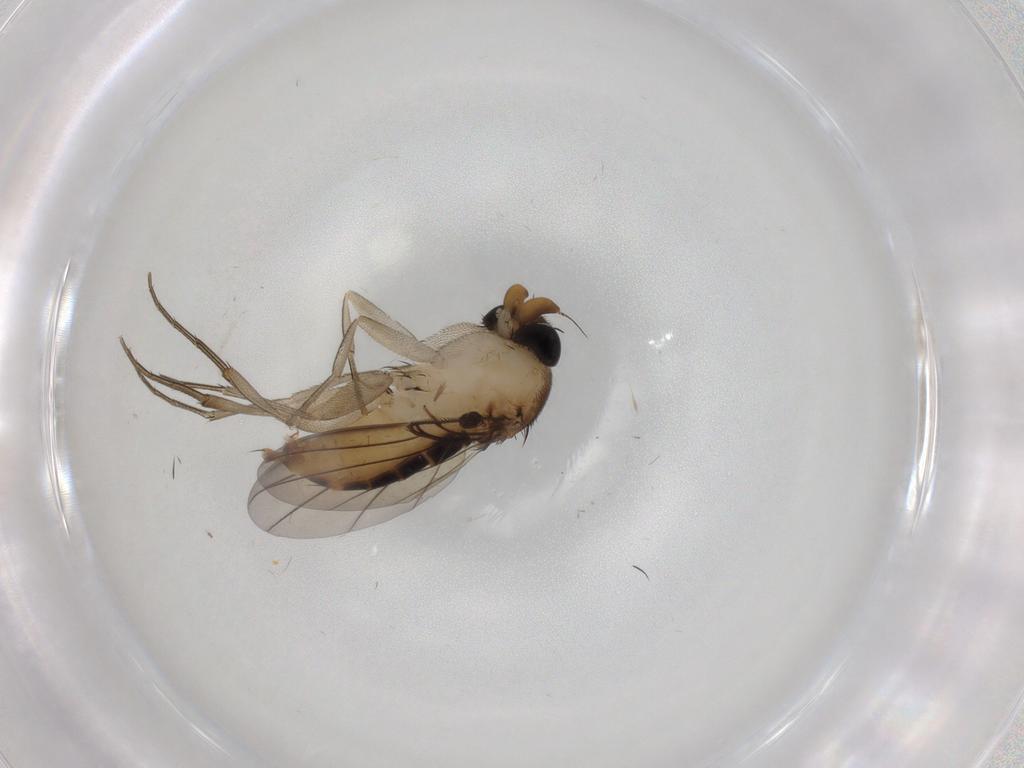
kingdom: Animalia
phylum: Arthropoda
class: Insecta
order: Diptera
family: Phoridae
